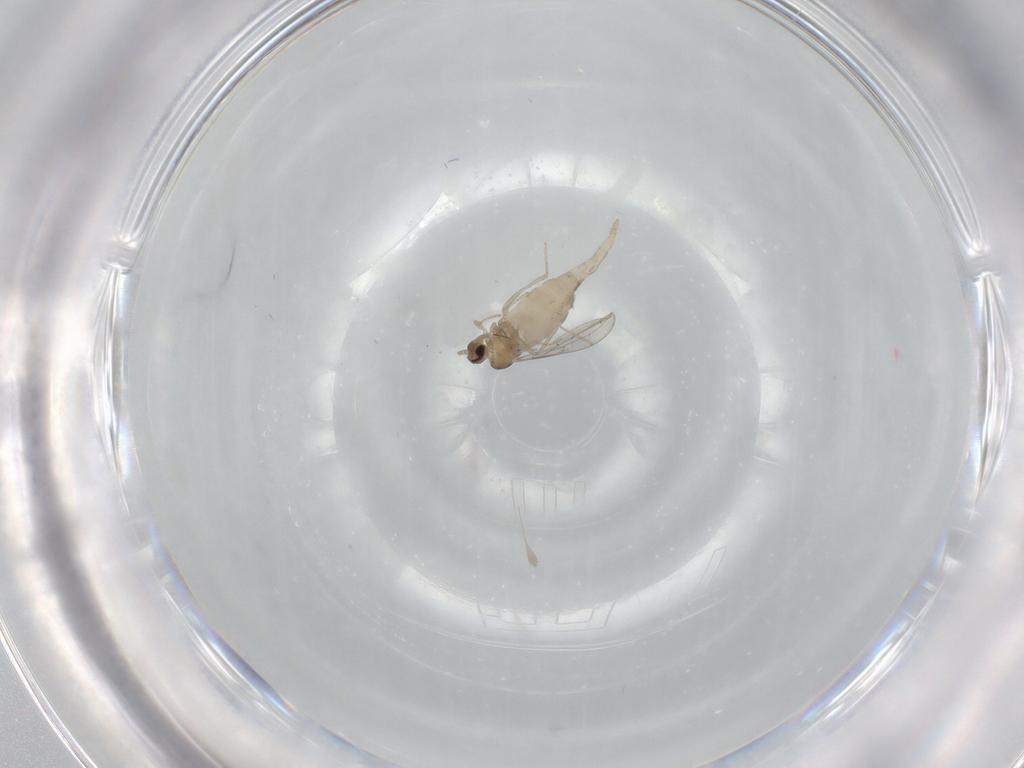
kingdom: Animalia
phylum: Arthropoda
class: Insecta
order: Diptera
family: Cecidomyiidae
